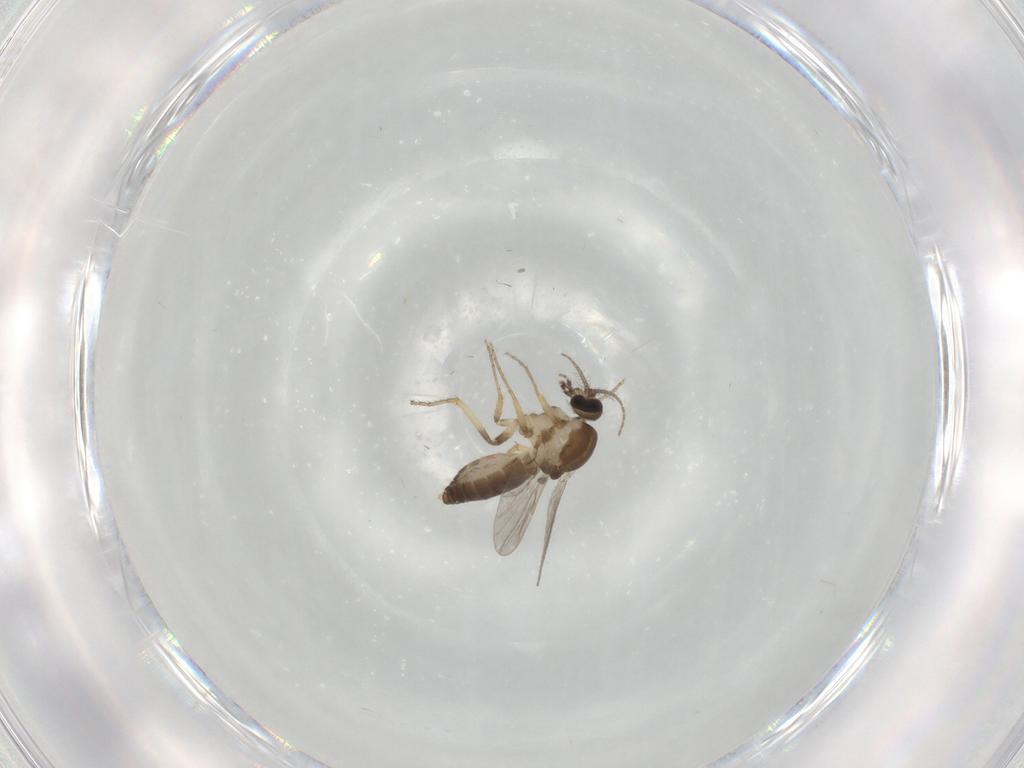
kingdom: Animalia
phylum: Arthropoda
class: Insecta
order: Diptera
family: Ceratopogonidae
